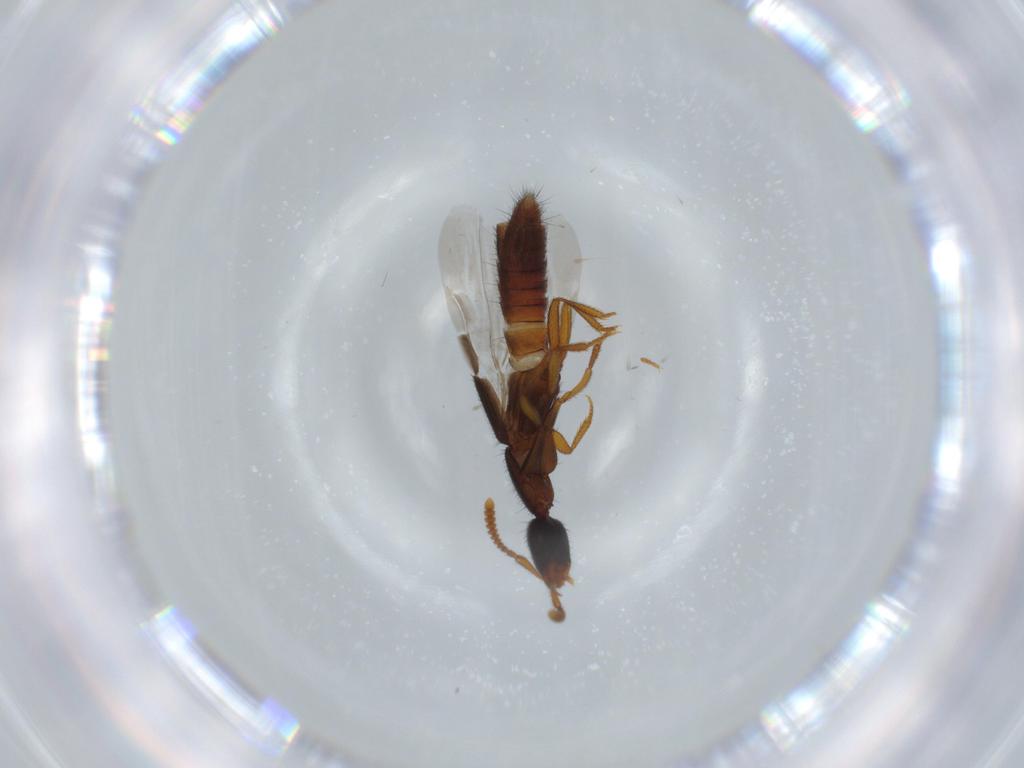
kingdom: Animalia
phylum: Arthropoda
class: Insecta
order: Coleoptera
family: Staphylinidae
